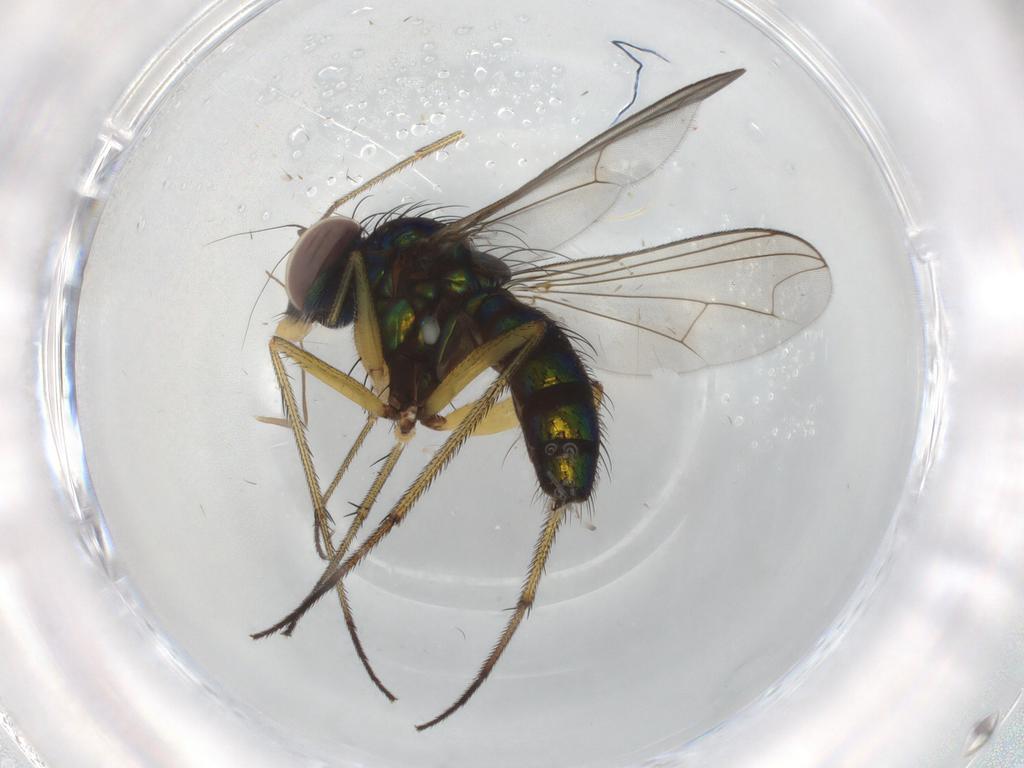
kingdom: Animalia
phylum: Arthropoda
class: Insecta
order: Diptera
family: Dolichopodidae
